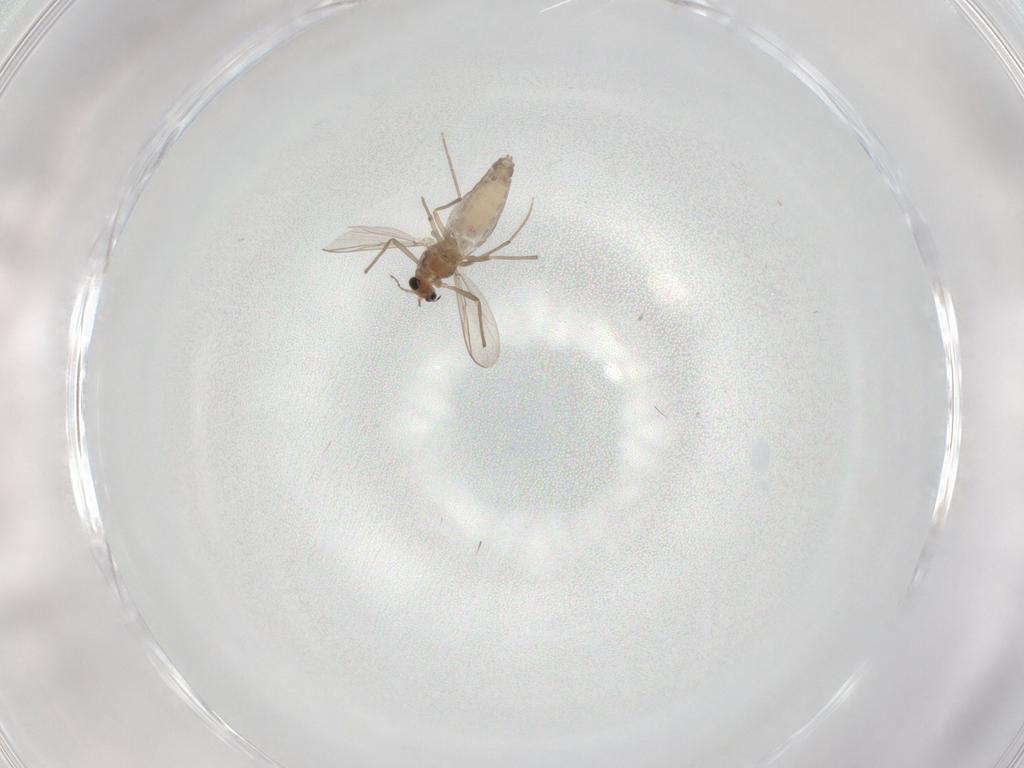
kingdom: Animalia
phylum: Arthropoda
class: Insecta
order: Diptera
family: Chironomidae
